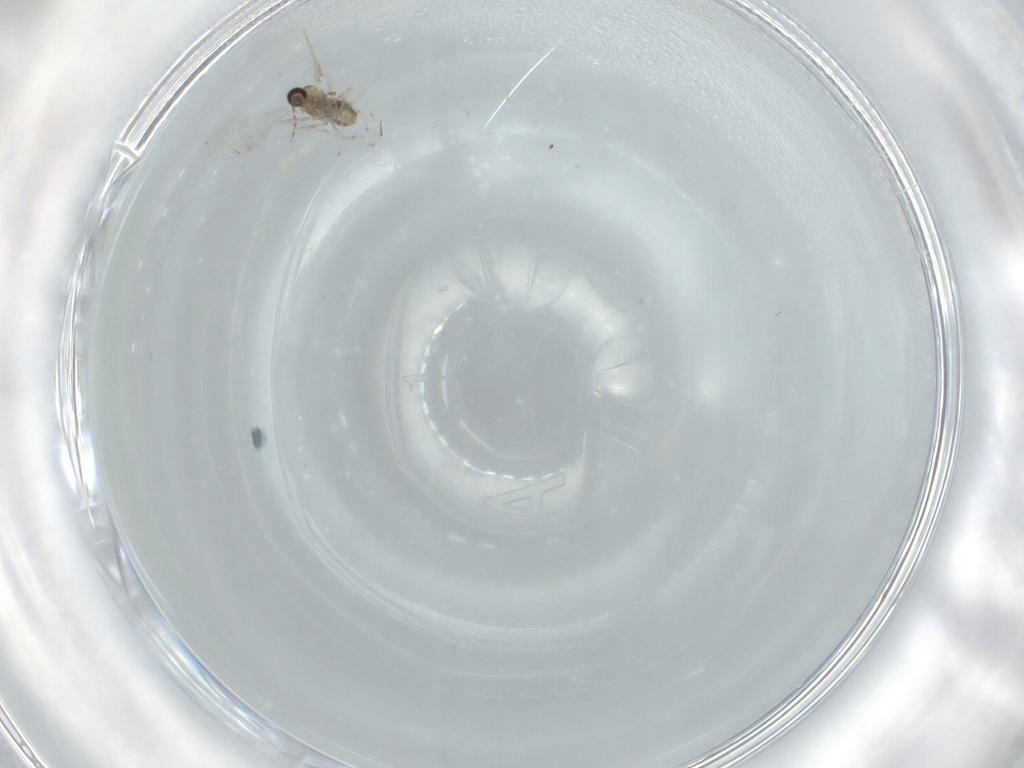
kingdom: Animalia
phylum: Arthropoda
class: Insecta
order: Diptera
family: Cecidomyiidae
